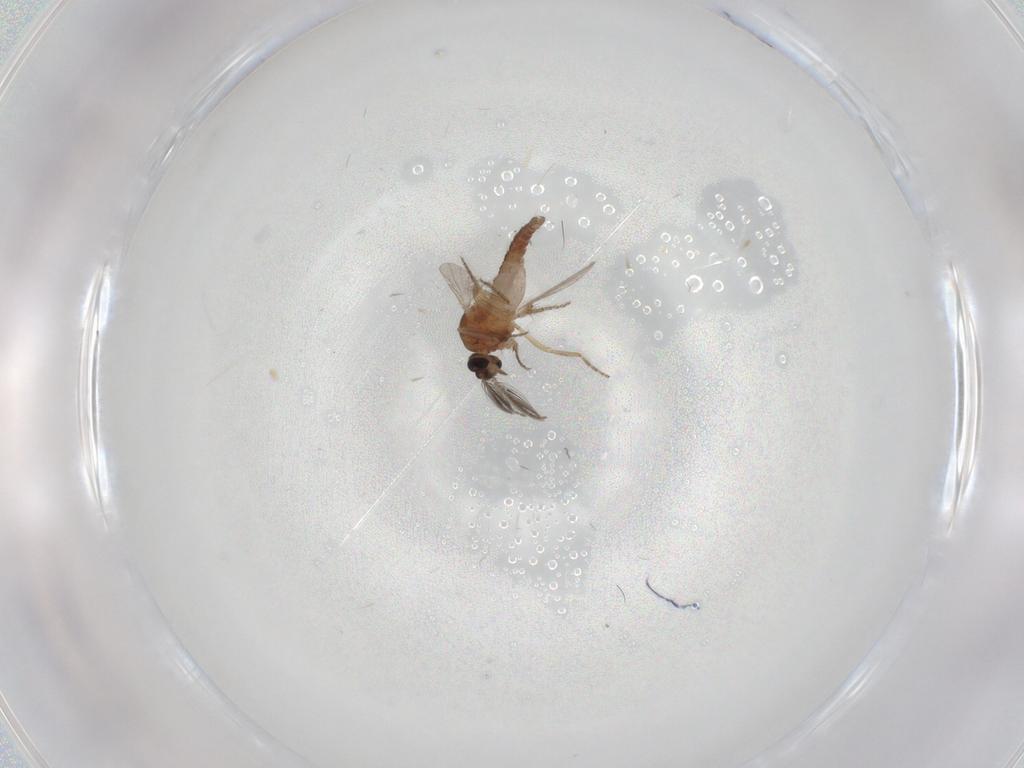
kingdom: Animalia
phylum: Arthropoda
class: Insecta
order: Diptera
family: Ceratopogonidae
